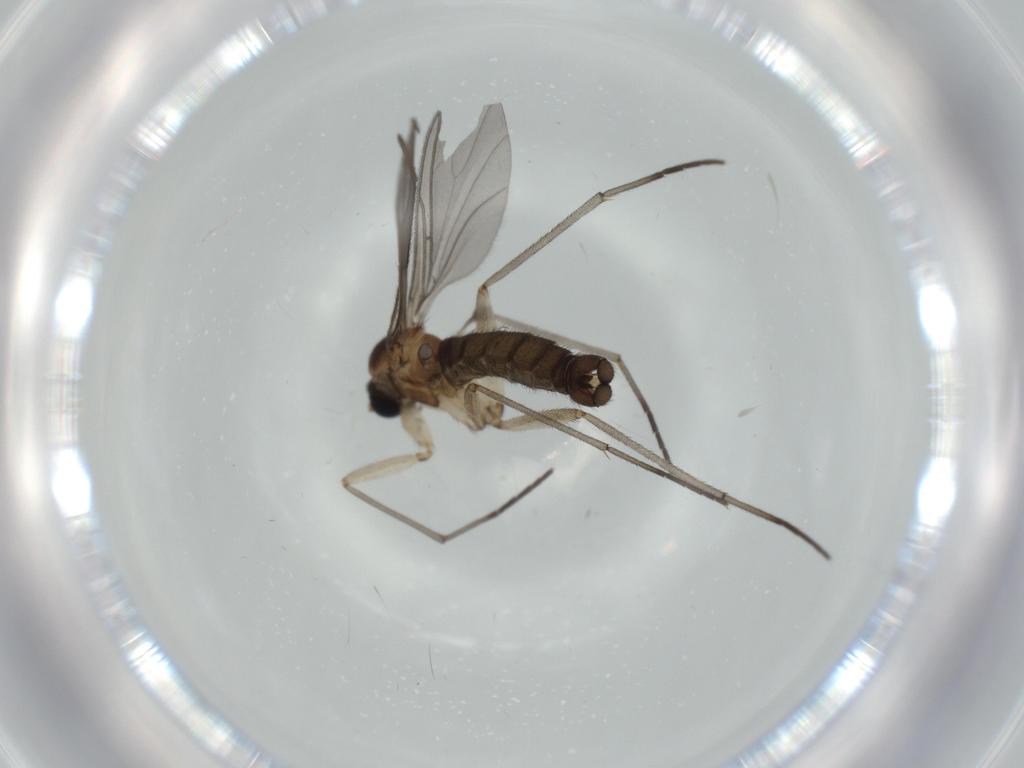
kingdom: Animalia
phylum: Arthropoda
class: Insecta
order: Diptera
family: Sciaridae
